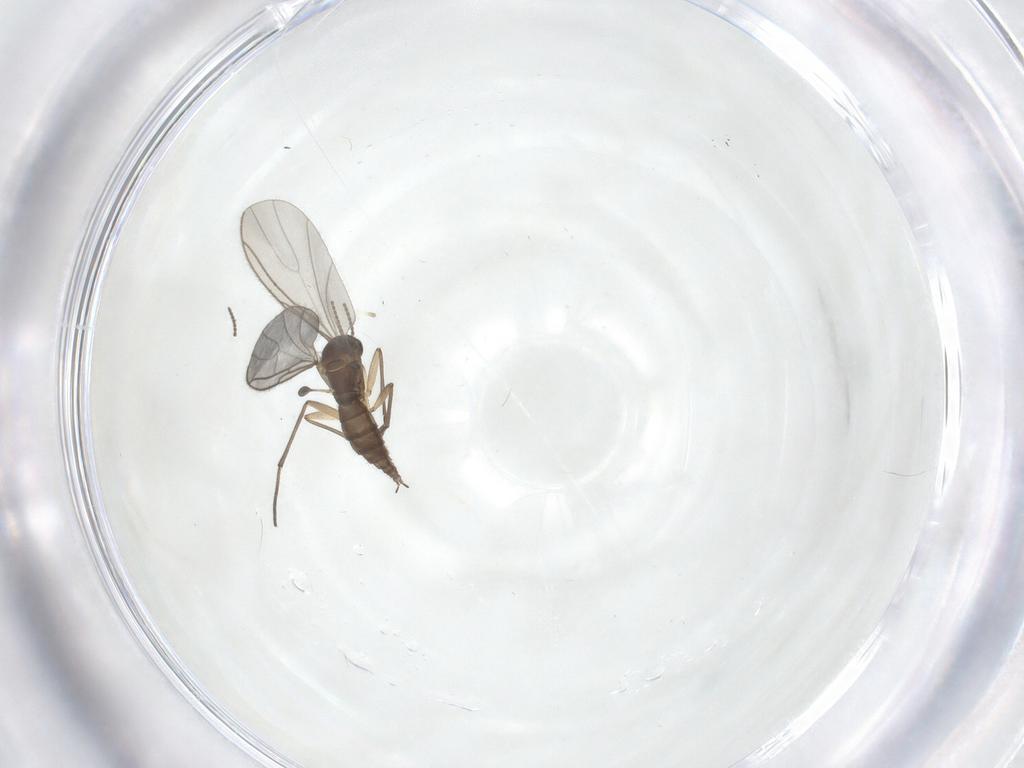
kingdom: Animalia
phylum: Arthropoda
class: Insecta
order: Diptera
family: Sciaridae
